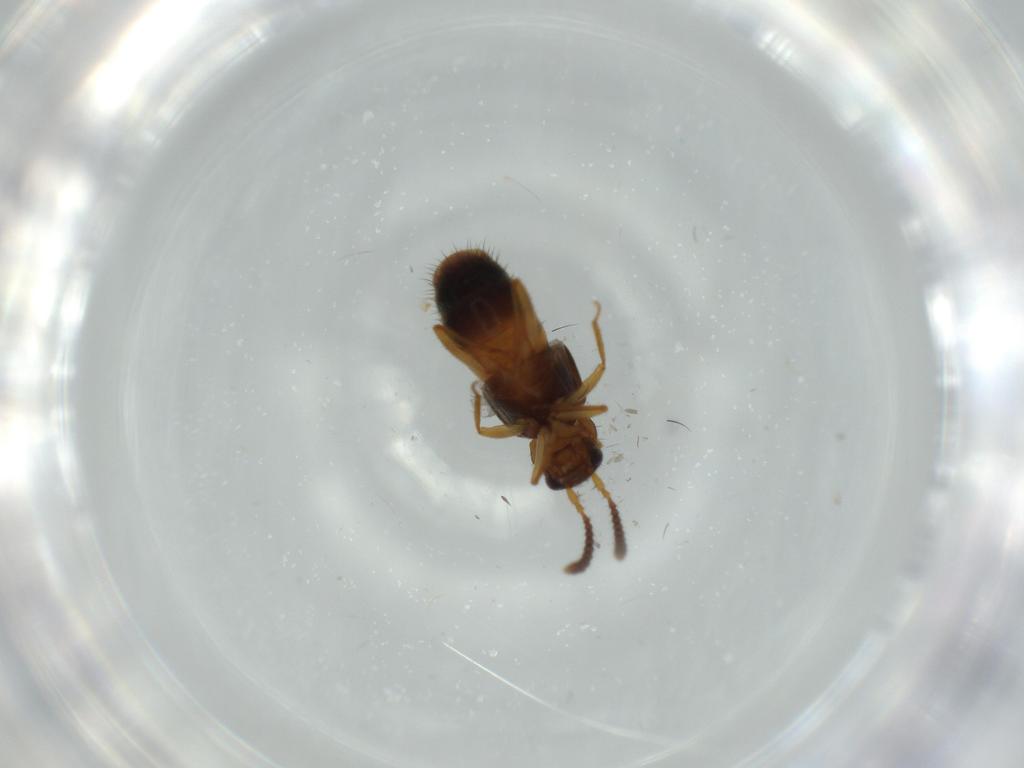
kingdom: Animalia
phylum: Arthropoda
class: Insecta
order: Coleoptera
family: Staphylinidae
